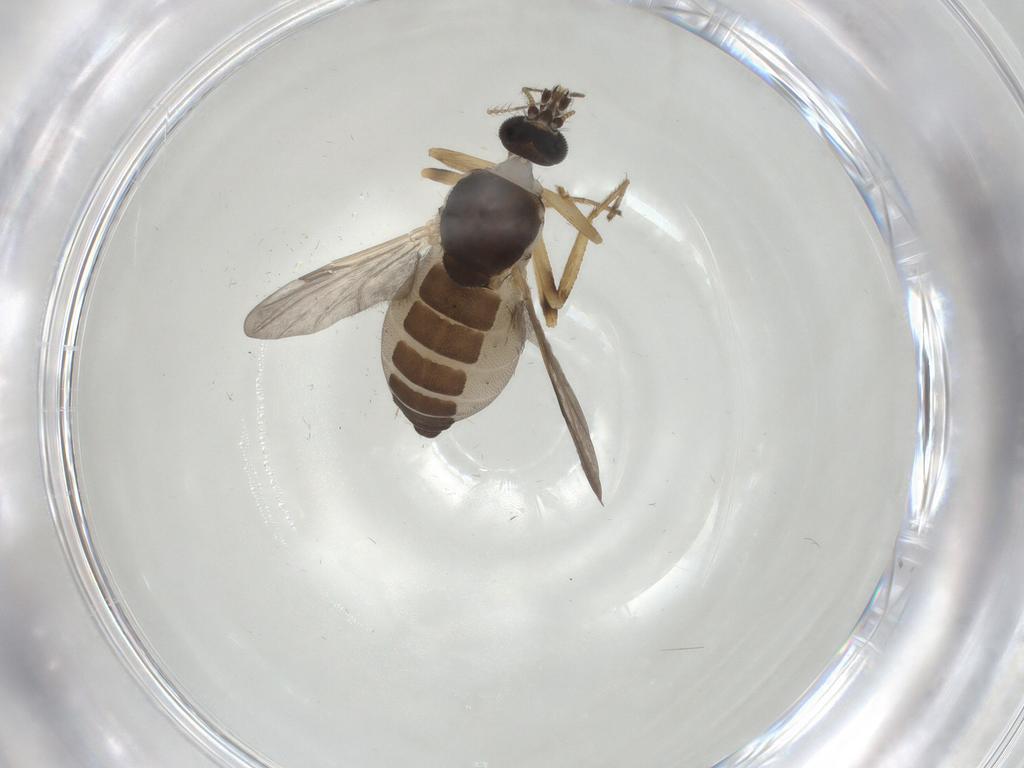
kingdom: Animalia
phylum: Arthropoda
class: Insecta
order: Diptera
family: Ceratopogonidae
